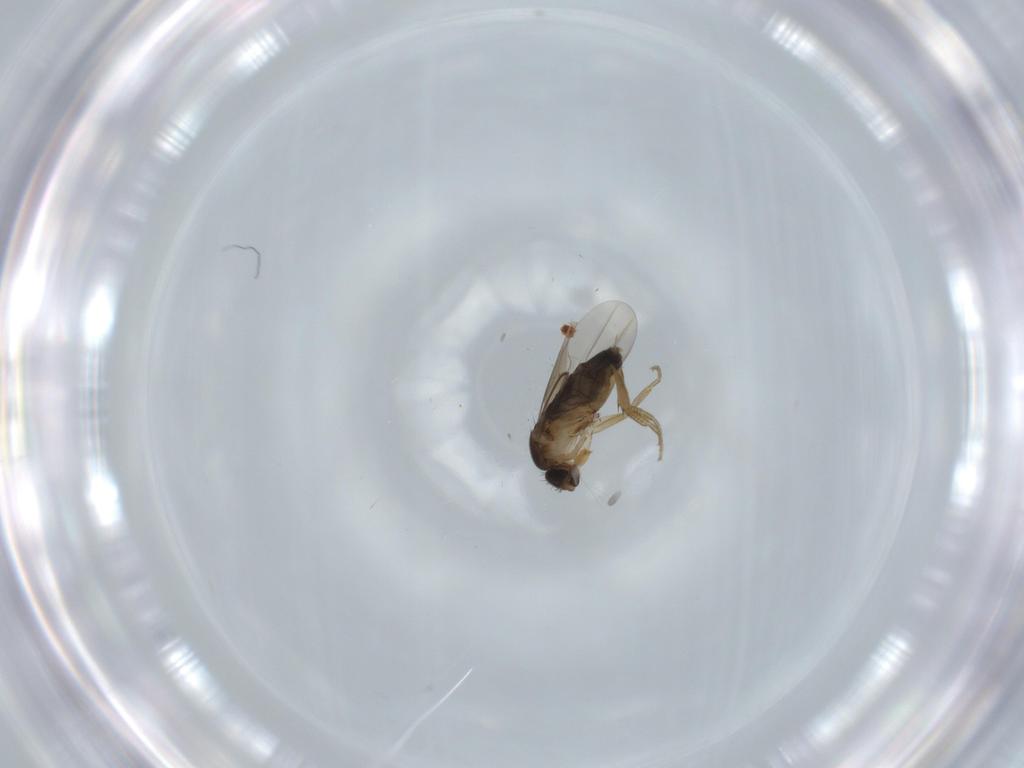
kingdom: Animalia
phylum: Arthropoda
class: Insecta
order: Diptera
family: Phoridae
